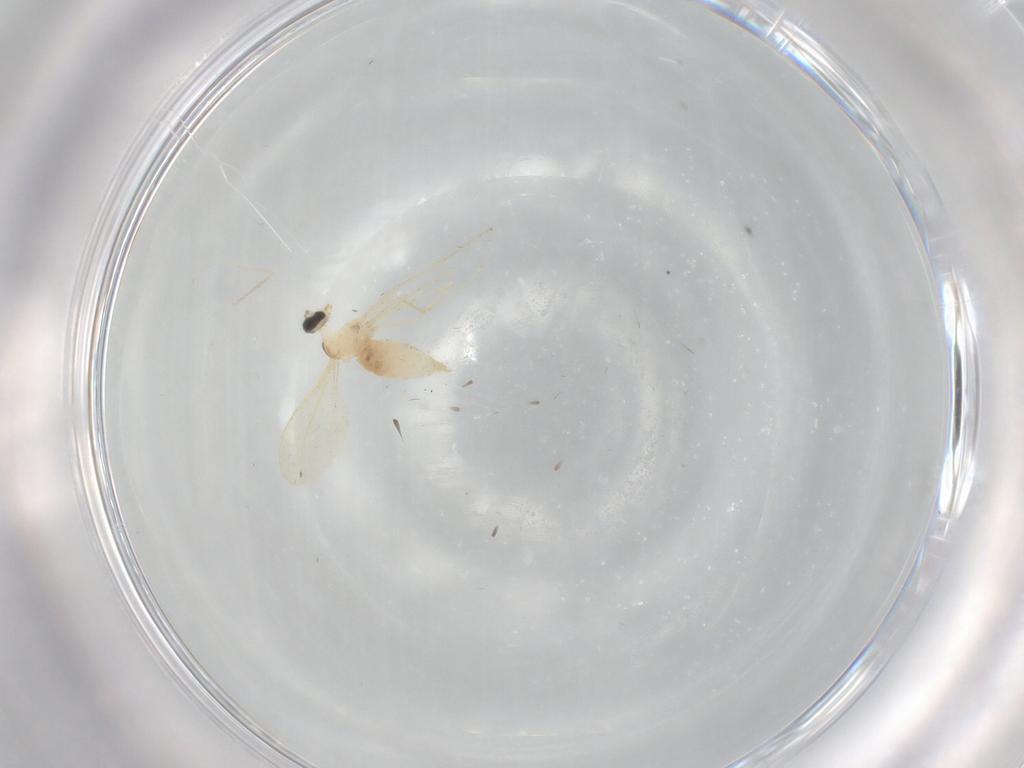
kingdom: Animalia
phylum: Arthropoda
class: Insecta
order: Diptera
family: Cecidomyiidae
